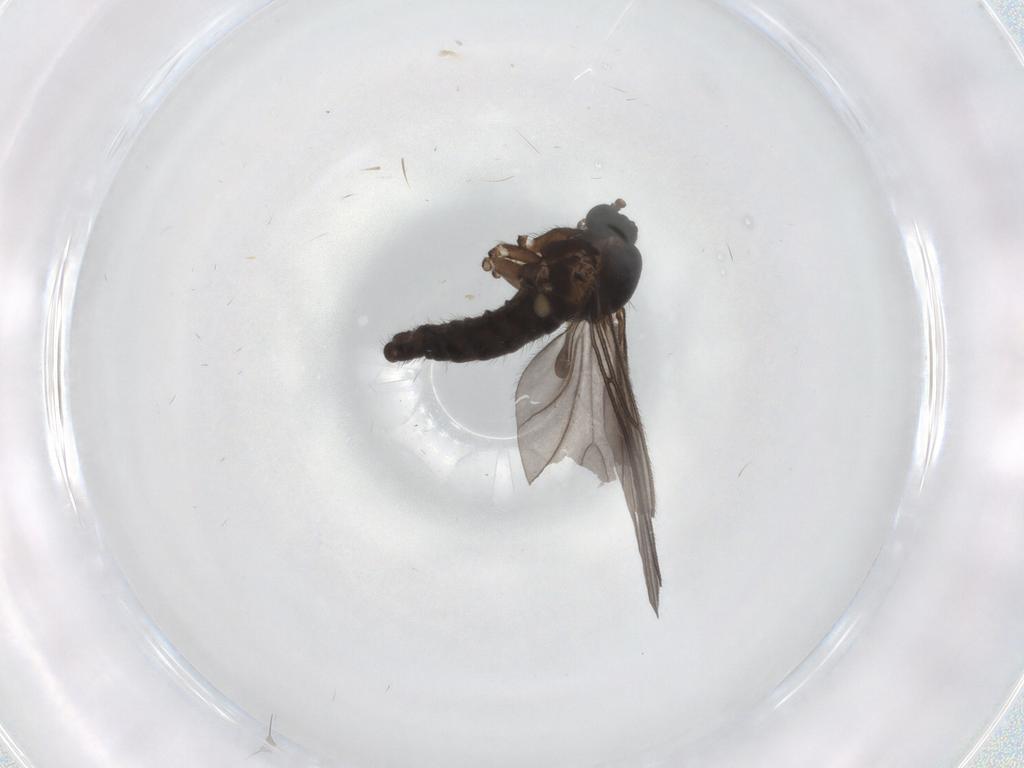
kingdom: Animalia
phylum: Arthropoda
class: Insecta
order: Diptera
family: Sciaridae
